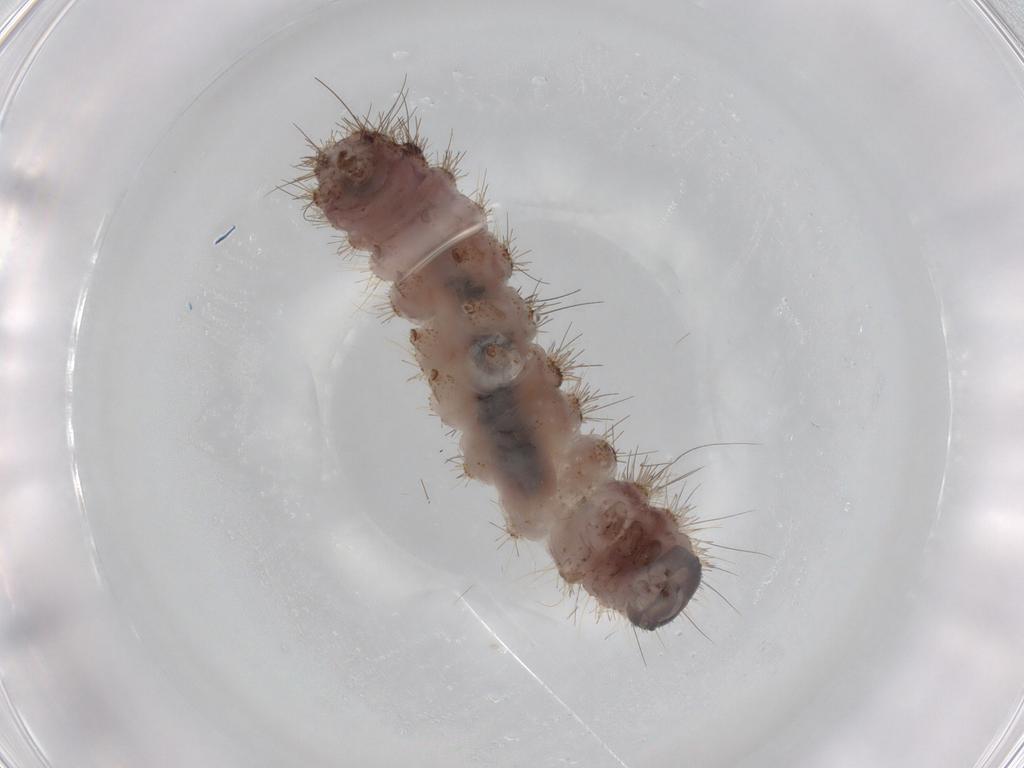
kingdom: Animalia
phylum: Arthropoda
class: Insecta
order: Lepidoptera
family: Erebidae
